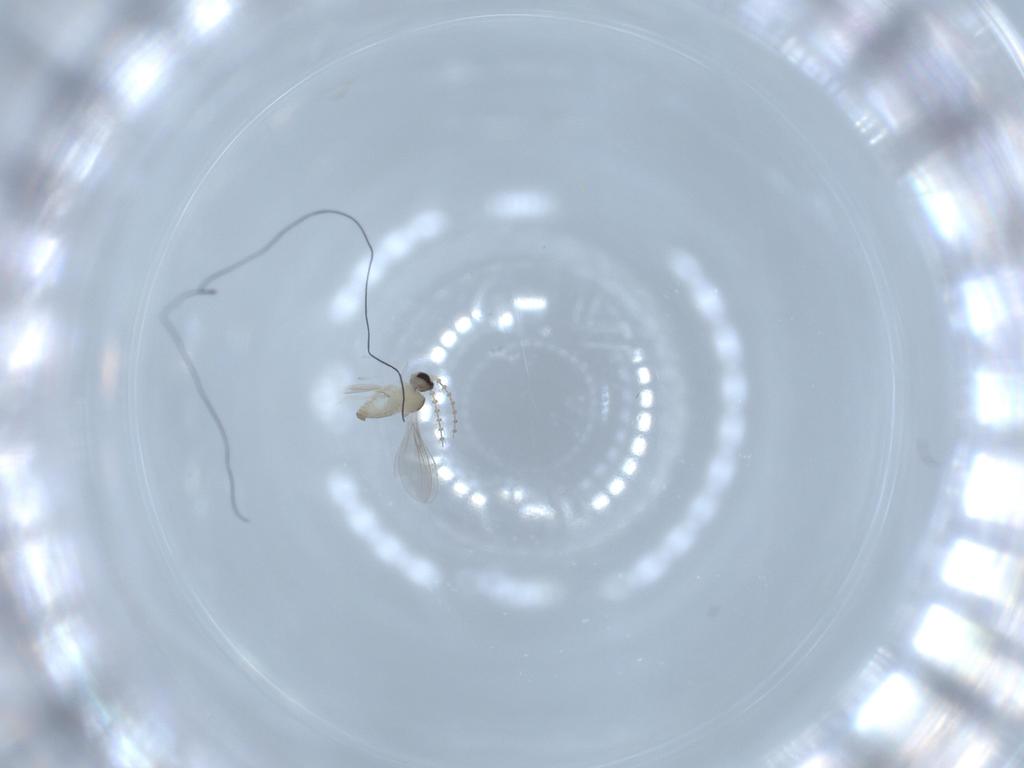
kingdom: Animalia
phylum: Arthropoda
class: Insecta
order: Diptera
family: Cecidomyiidae
